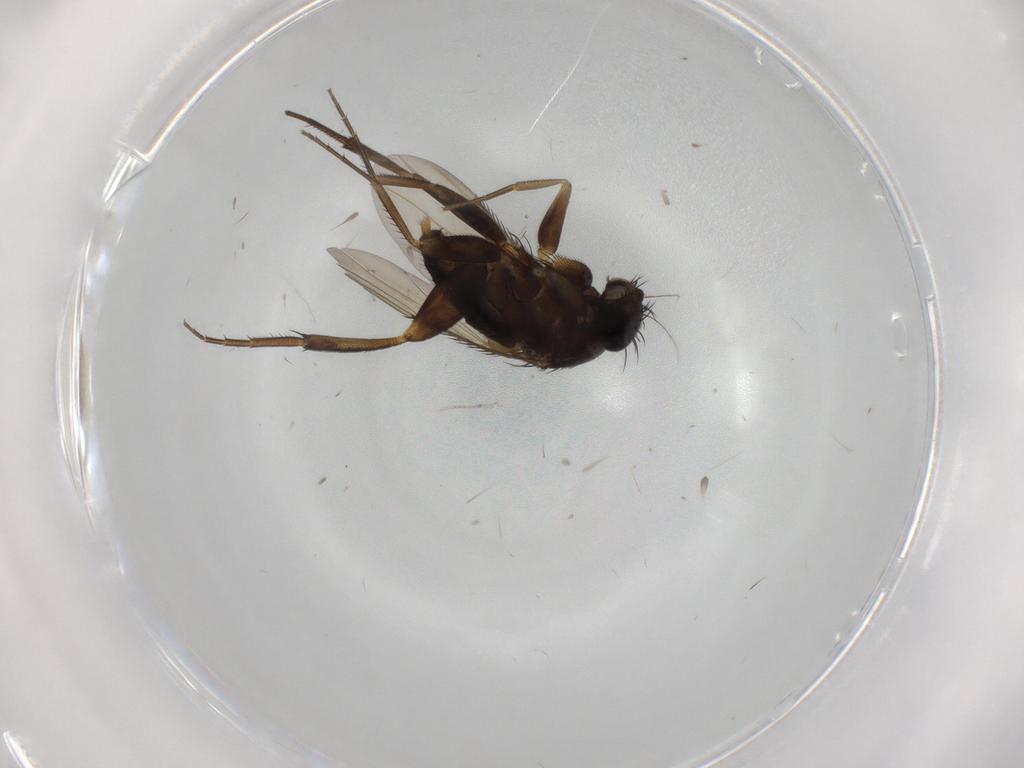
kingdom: Animalia
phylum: Arthropoda
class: Insecta
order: Diptera
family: Phoridae
